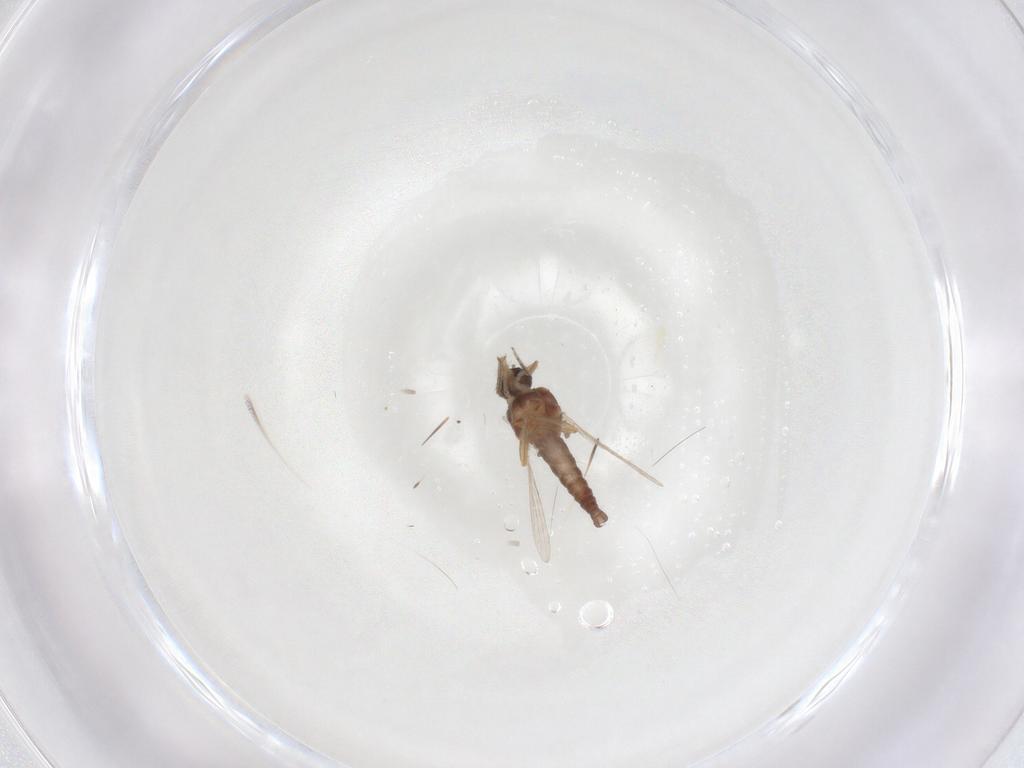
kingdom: Animalia
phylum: Arthropoda
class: Insecta
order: Diptera
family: Ceratopogonidae
